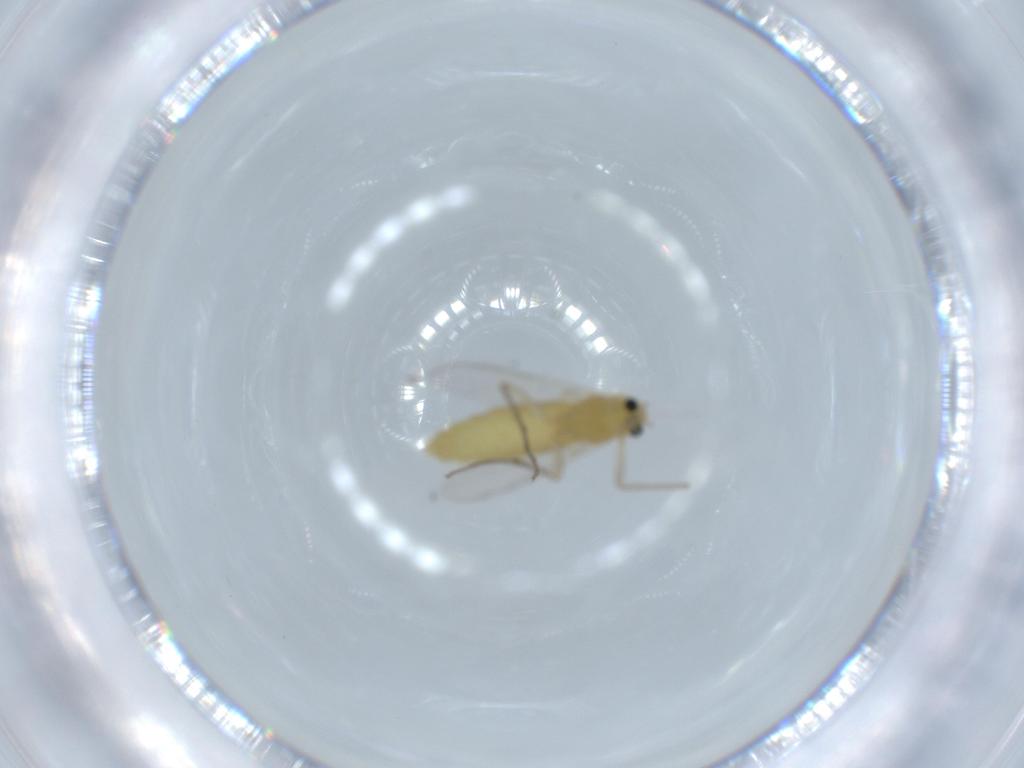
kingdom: Animalia
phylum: Arthropoda
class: Insecta
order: Diptera
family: Chironomidae
